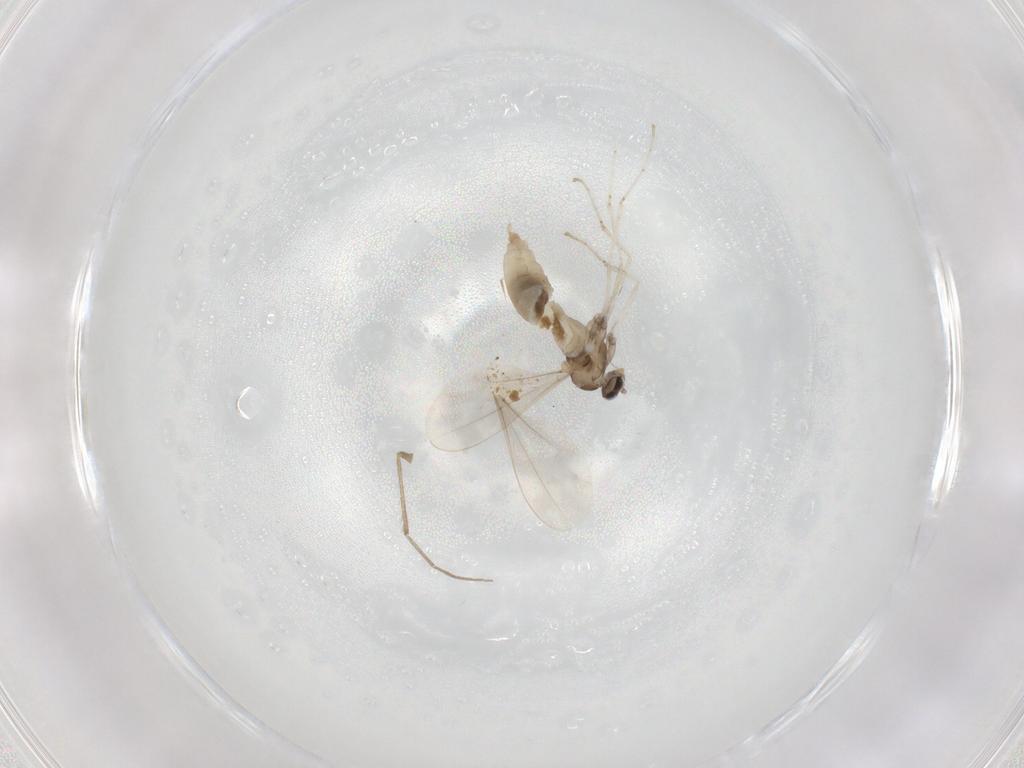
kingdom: Animalia
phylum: Arthropoda
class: Insecta
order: Diptera
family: Cecidomyiidae
